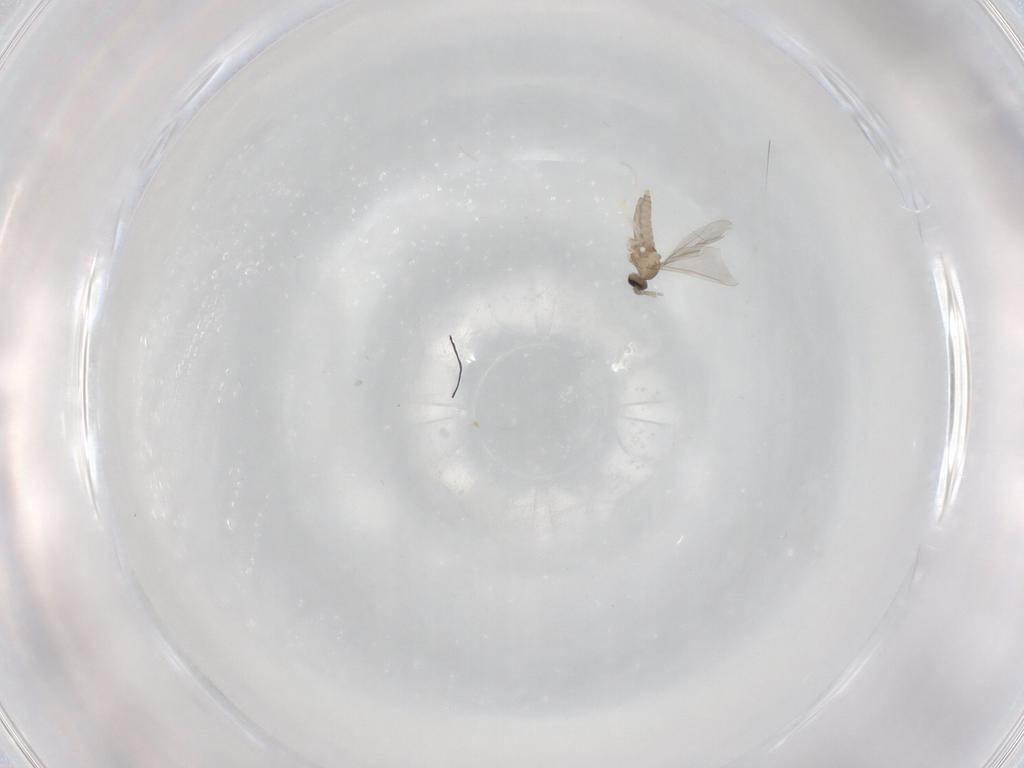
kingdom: Animalia
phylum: Arthropoda
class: Insecta
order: Diptera
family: Cecidomyiidae
